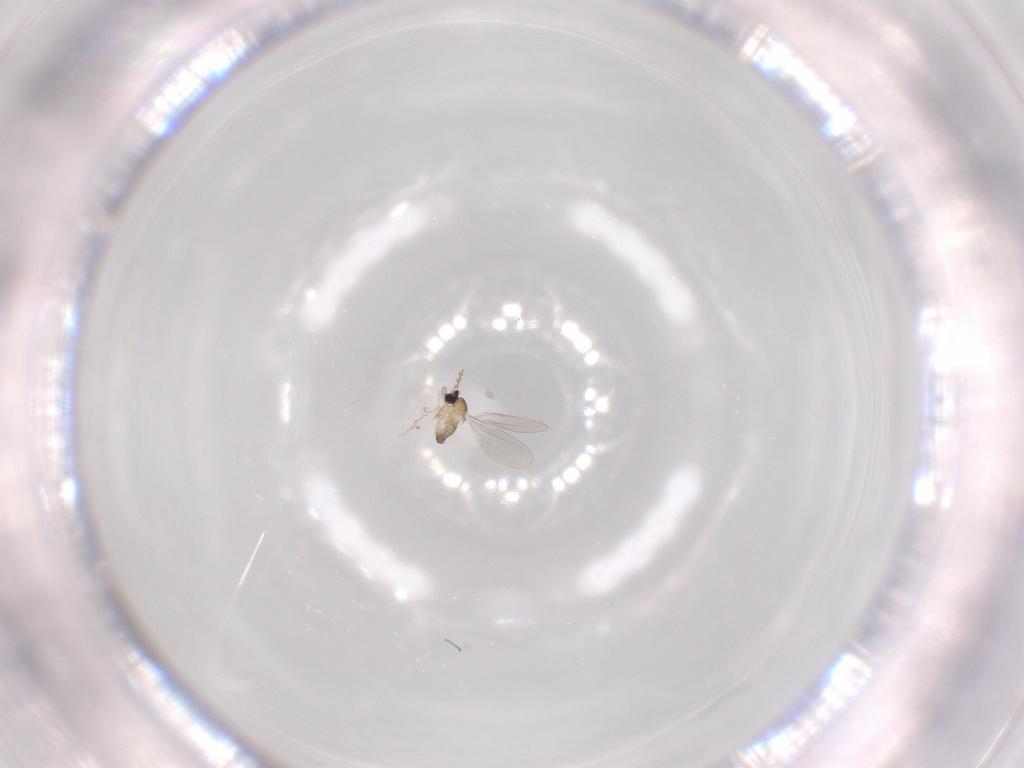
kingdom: Animalia
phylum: Arthropoda
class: Insecta
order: Diptera
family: Cecidomyiidae
